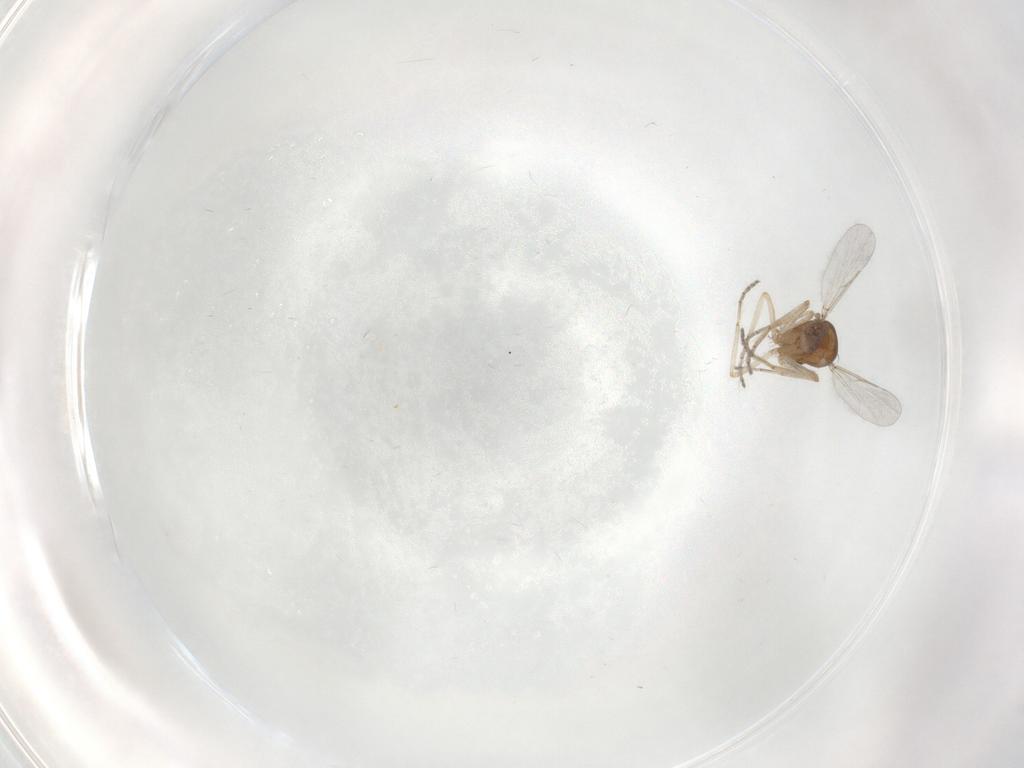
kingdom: Animalia
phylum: Arthropoda
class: Insecta
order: Diptera
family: Ceratopogonidae
